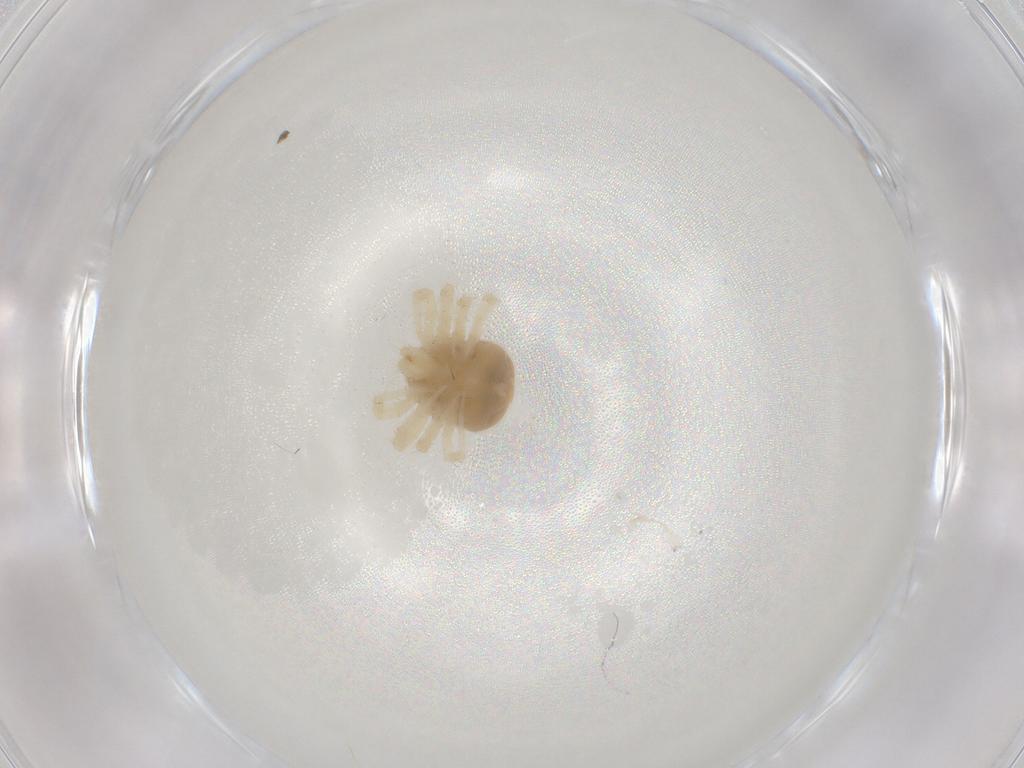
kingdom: Animalia
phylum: Arthropoda
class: Arachnida
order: Trombidiformes
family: Anystidae
